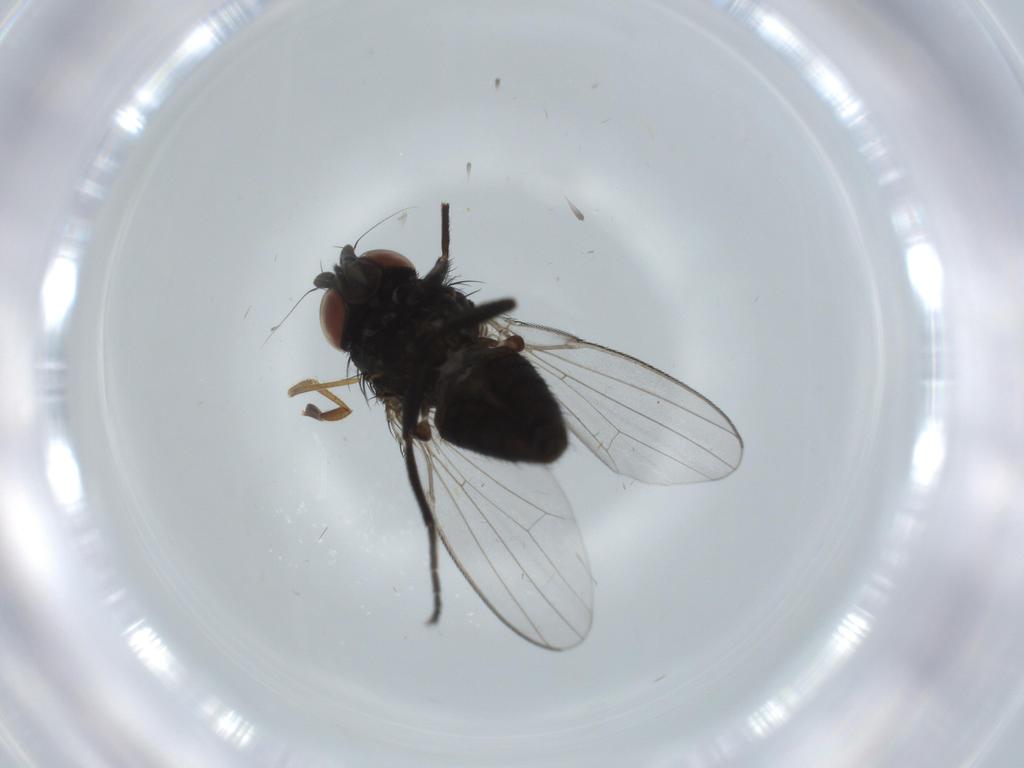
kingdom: Animalia
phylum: Arthropoda
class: Insecta
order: Diptera
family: Milichiidae
